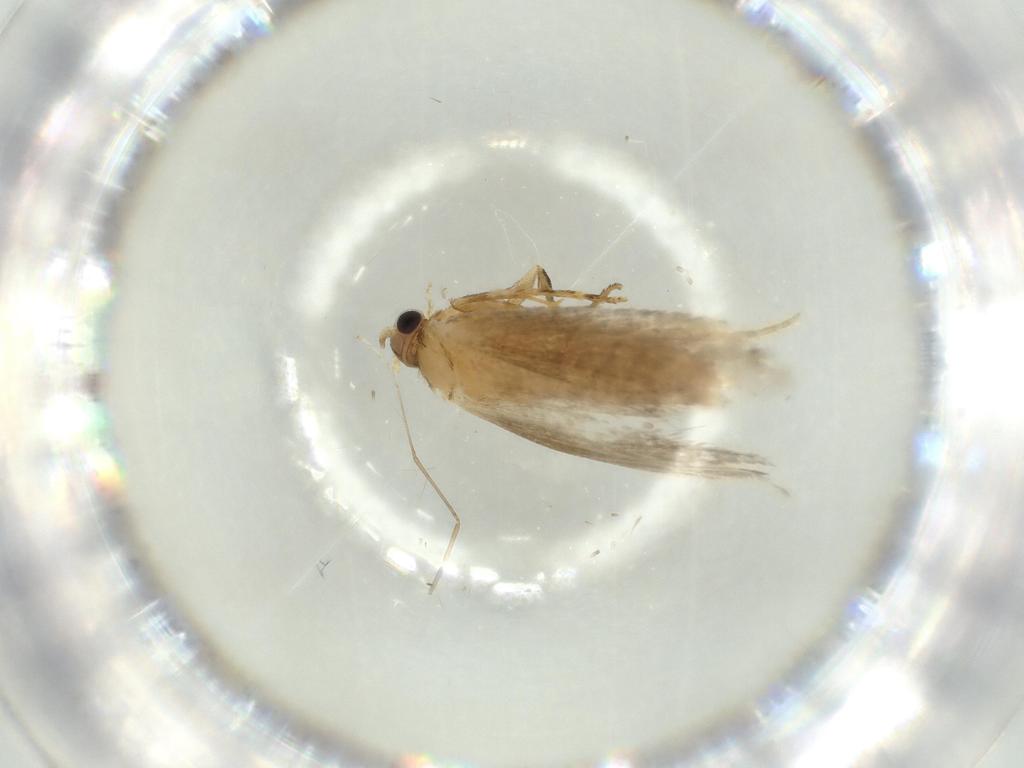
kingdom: Animalia
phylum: Arthropoda
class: Insecta
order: Lepidoptera
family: Tineidae
